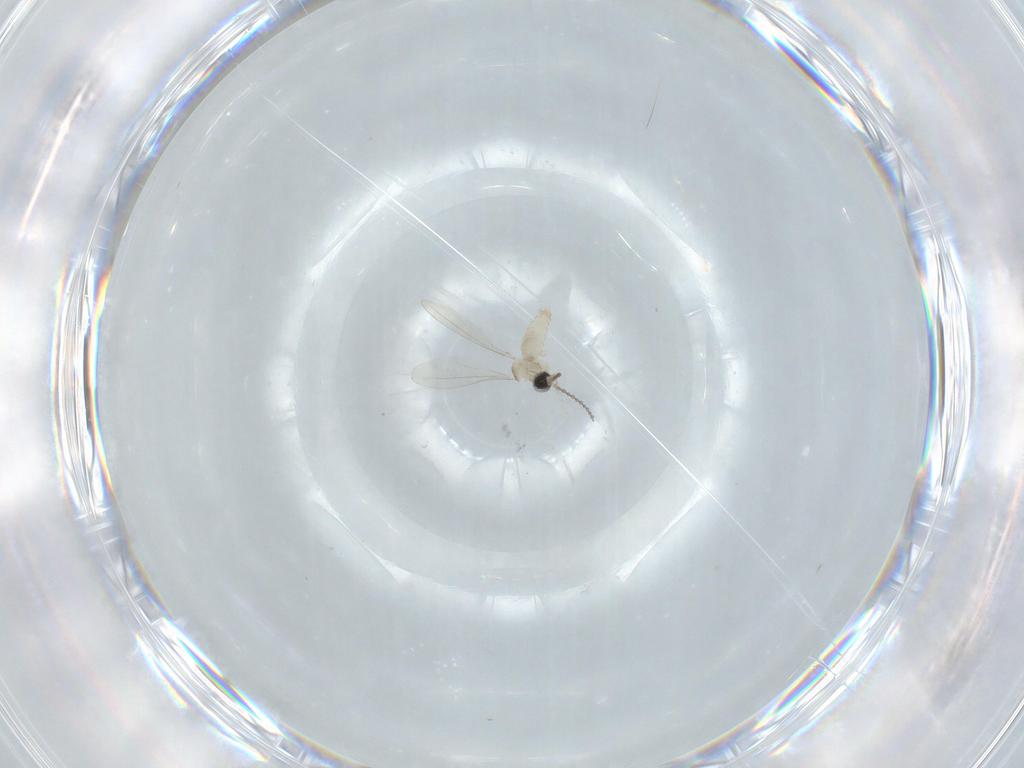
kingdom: Animalia
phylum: Arthropoda
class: Insecta
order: Diptera
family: Cecidomyiidae
